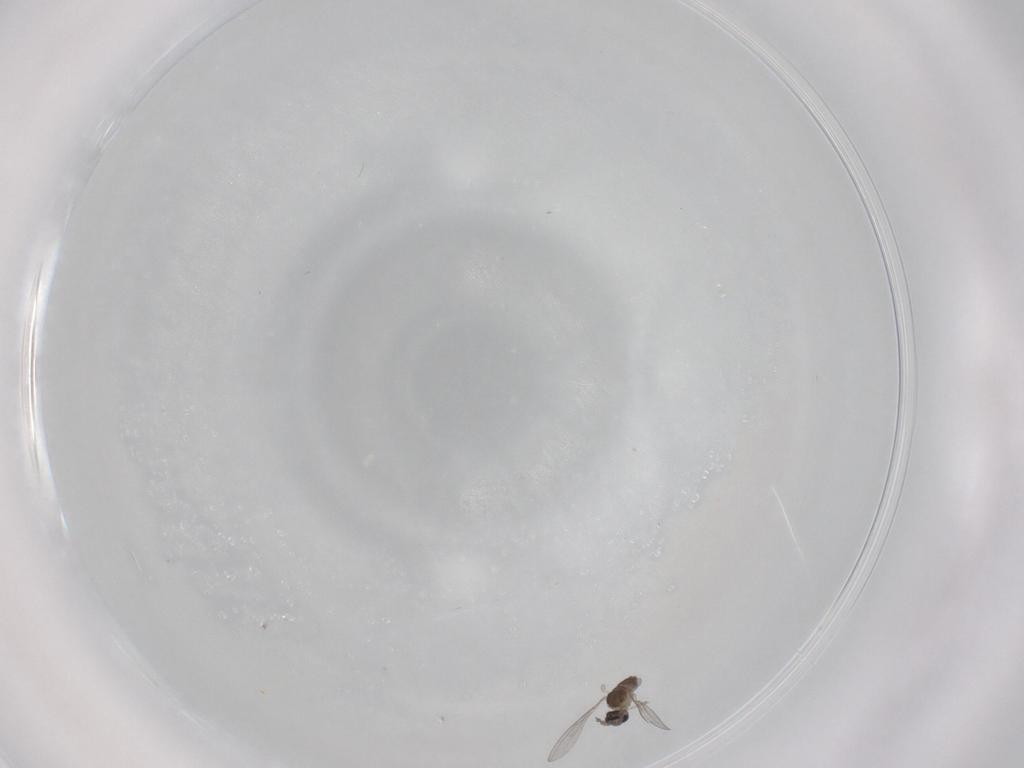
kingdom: Animalia
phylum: Arthropoda
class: Insecta
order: Diptera
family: Cecidomyiidae
